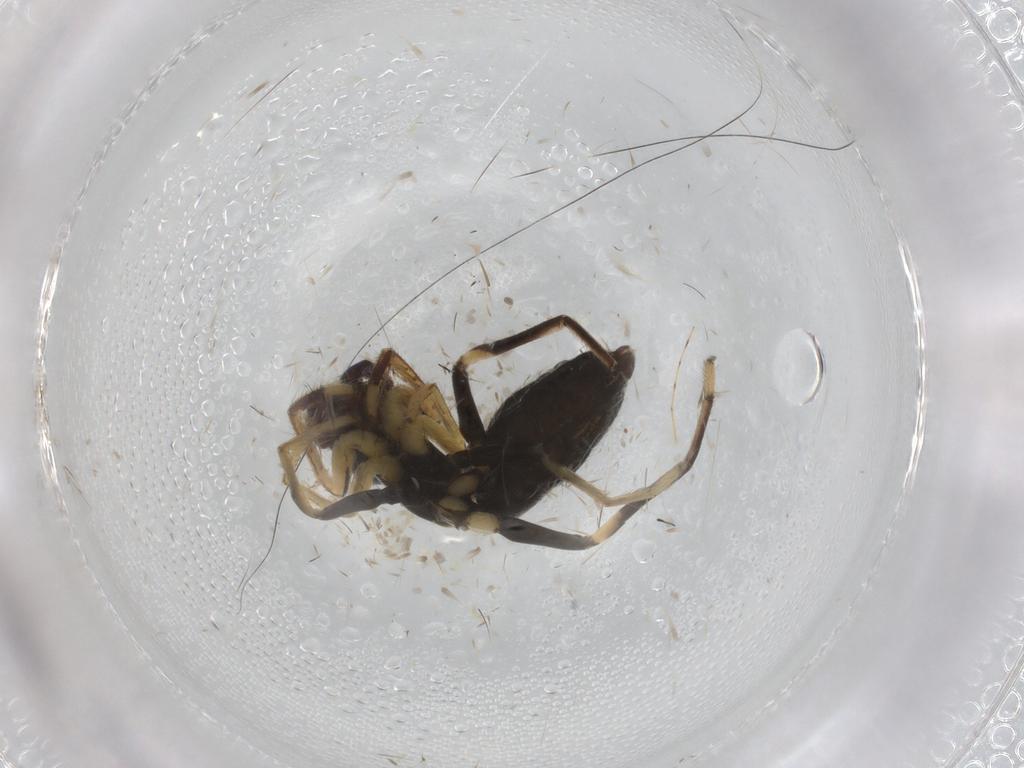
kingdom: Animalia
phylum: Arthropoda
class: Arachnida
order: Araneae
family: Salticidae
